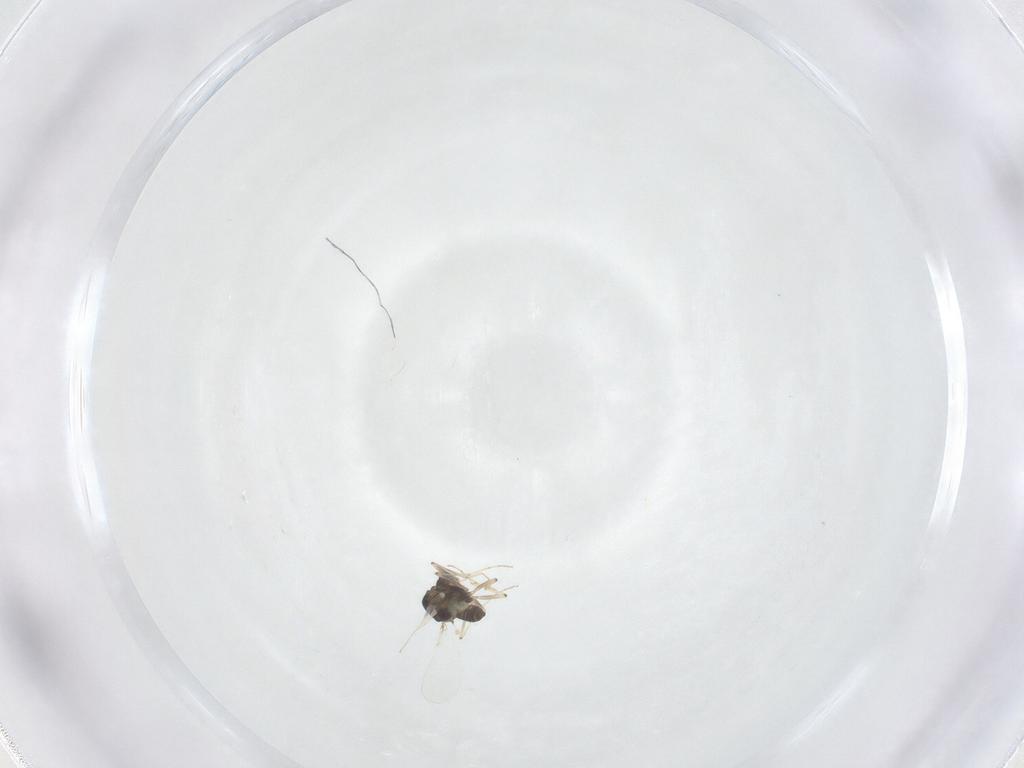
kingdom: Animalia
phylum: Arthropoda
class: Insecta
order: Diptera
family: Chironomidae
